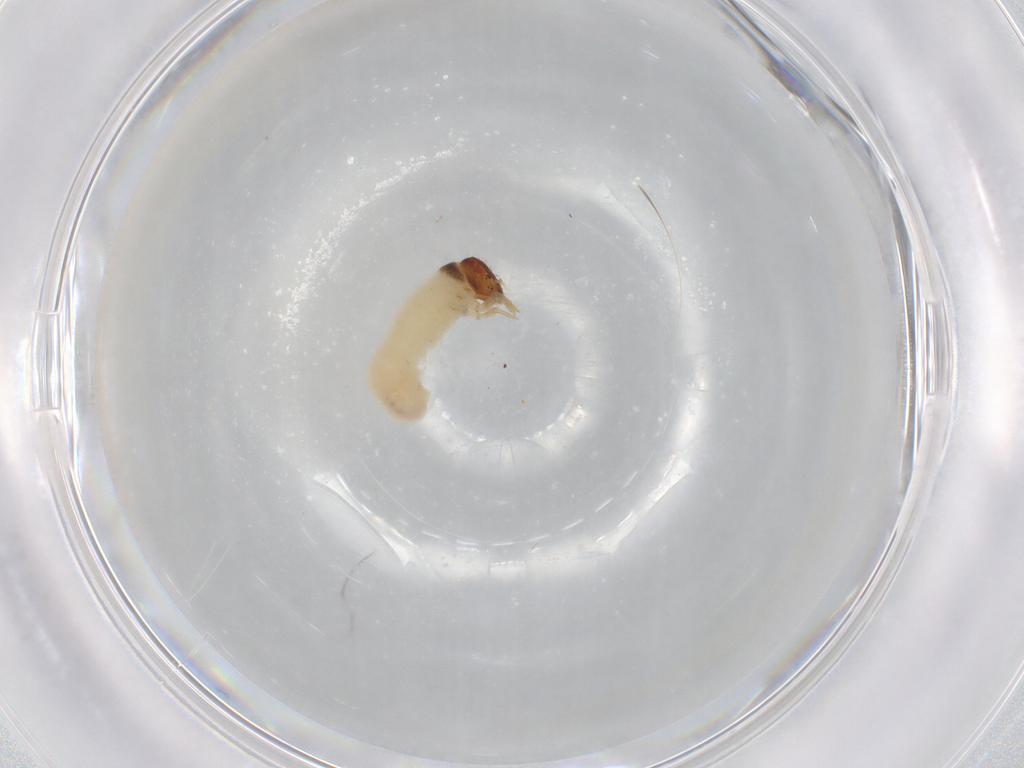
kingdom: Animalia
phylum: Arthropoda
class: Insecta
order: Coleoptera
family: Chrysomelidae
